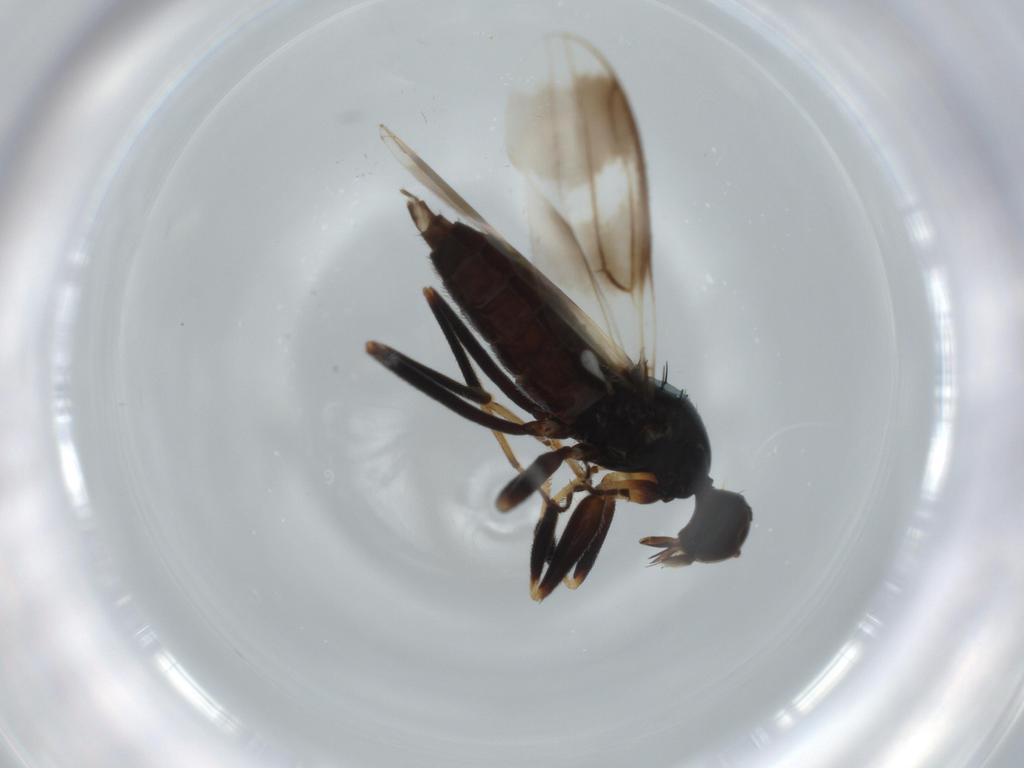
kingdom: Animalia
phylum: Arthropoda
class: Insecta
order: Diptera
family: Hybotidae
